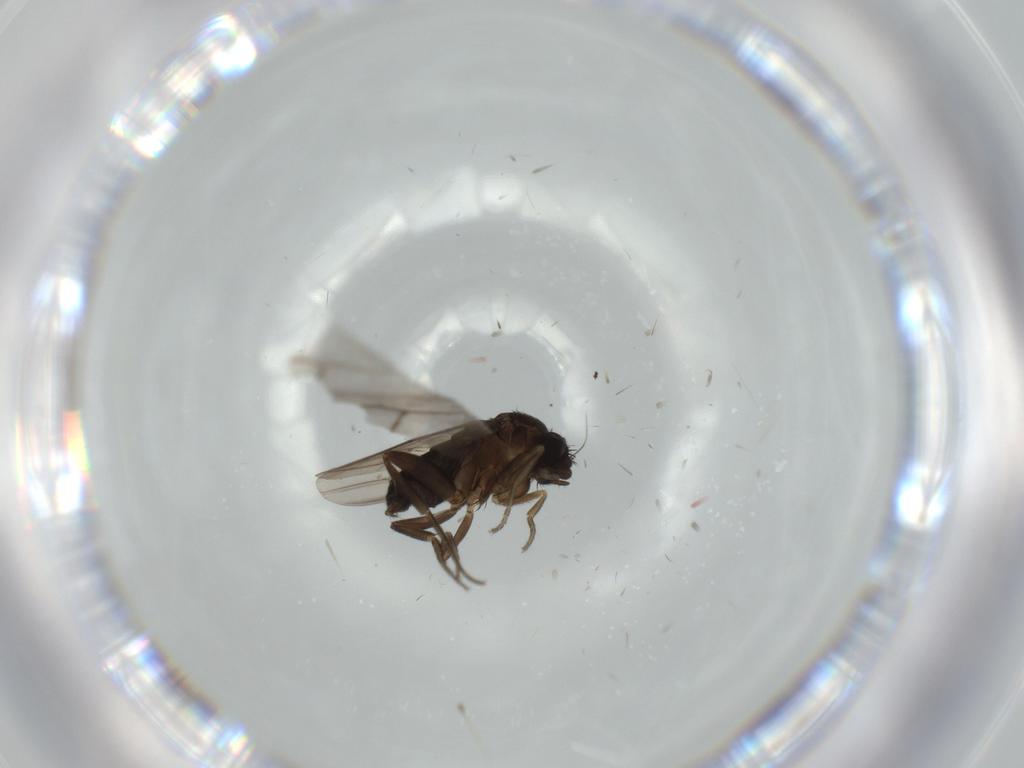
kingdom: Animalia
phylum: Arthropoda
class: Insecta
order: Diptera
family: Phoridae
